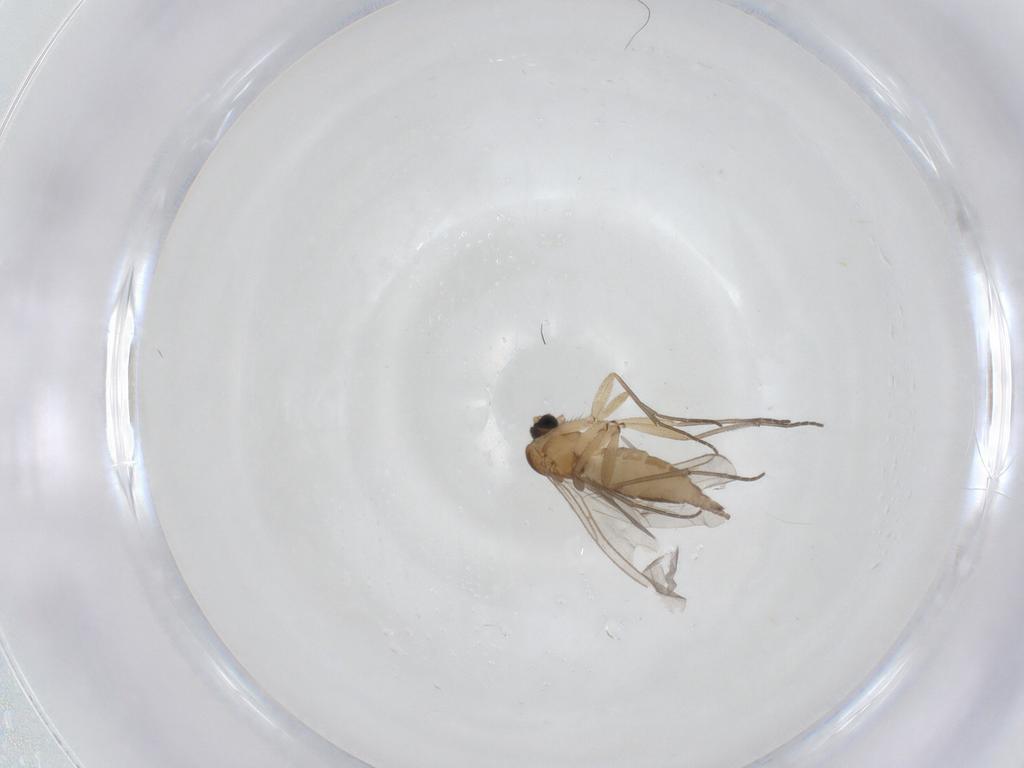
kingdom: Animalia
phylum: Arthropoda
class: Insecta
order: Diptera
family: Sciaridae
